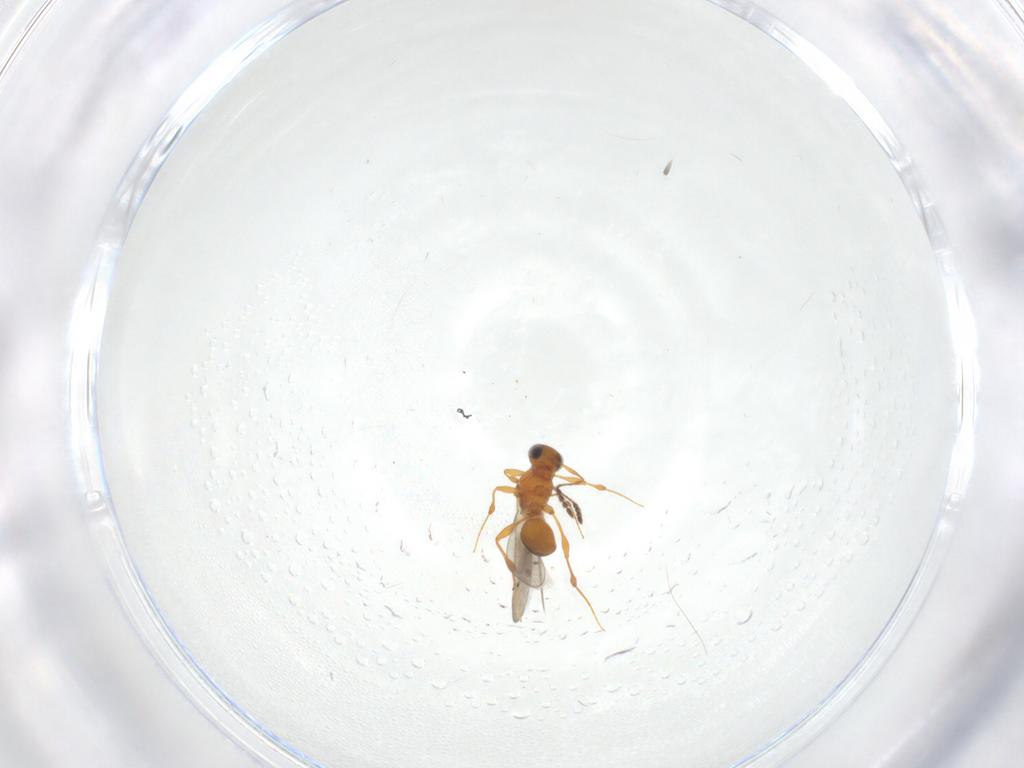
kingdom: Animalia
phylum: Arthropoda
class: Insecta
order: Hymenoptera
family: Platygastridae
